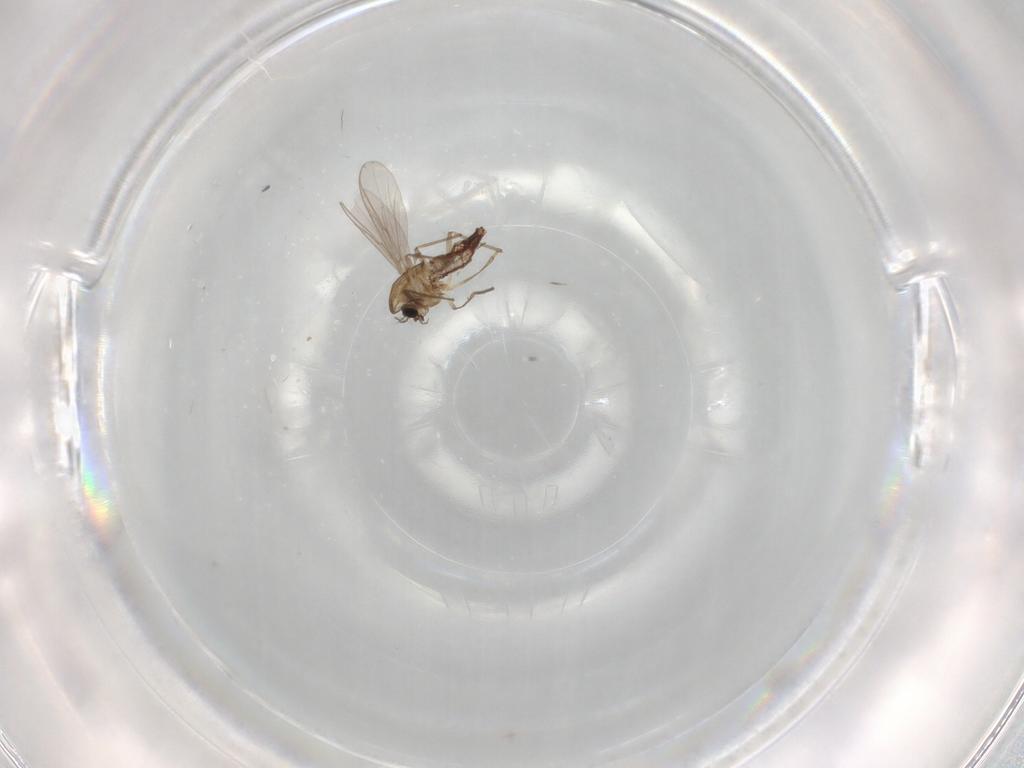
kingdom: Animalia
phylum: Arthropoda
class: Insecta
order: Diptera
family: Chironomidae
